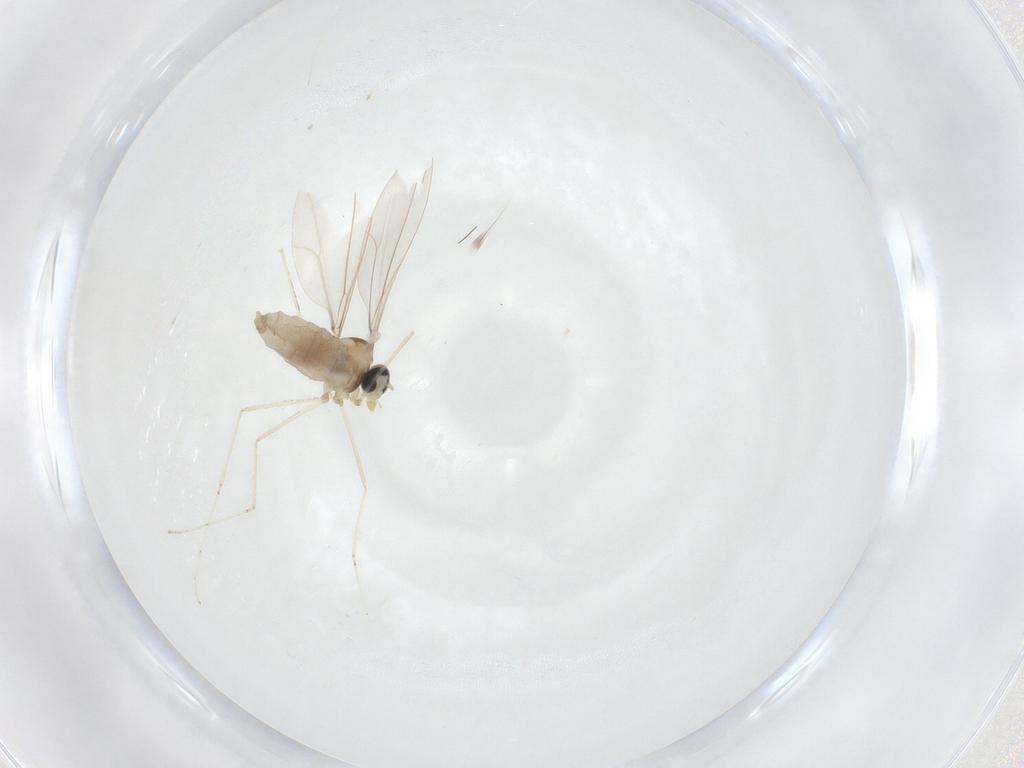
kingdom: Animalia
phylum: Arthropoda
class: Insecta
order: Diptera
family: Cecidomyiidae
